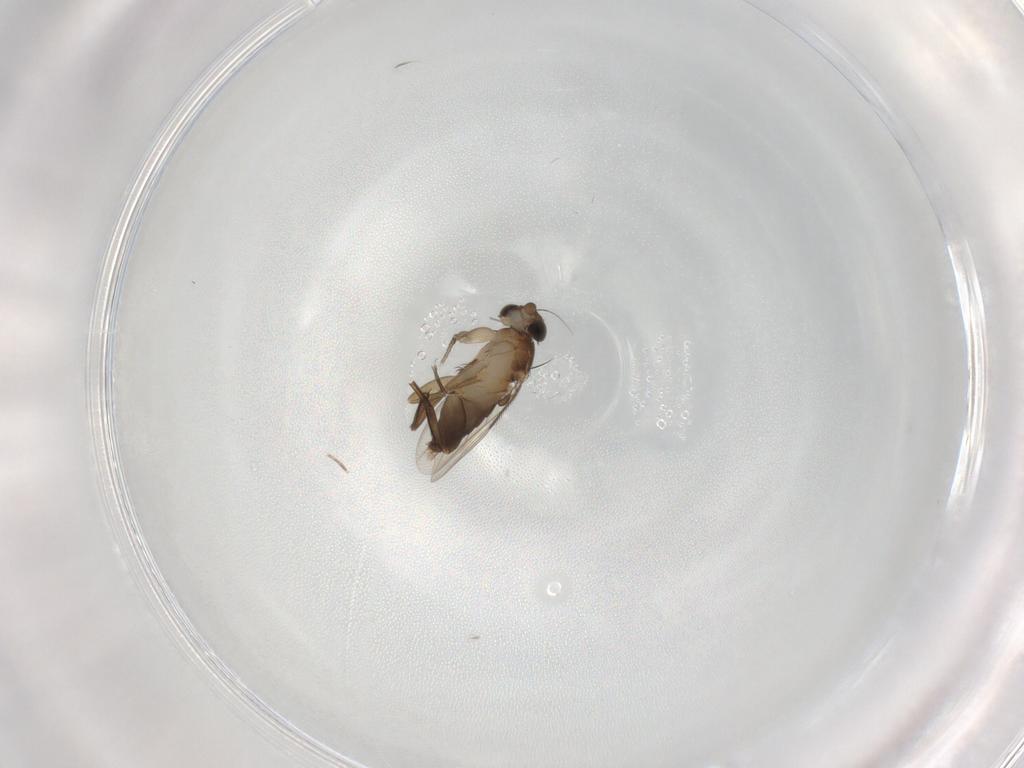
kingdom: Animalia
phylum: Arthropoda
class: Insecta
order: Diptera
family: Phoridae
